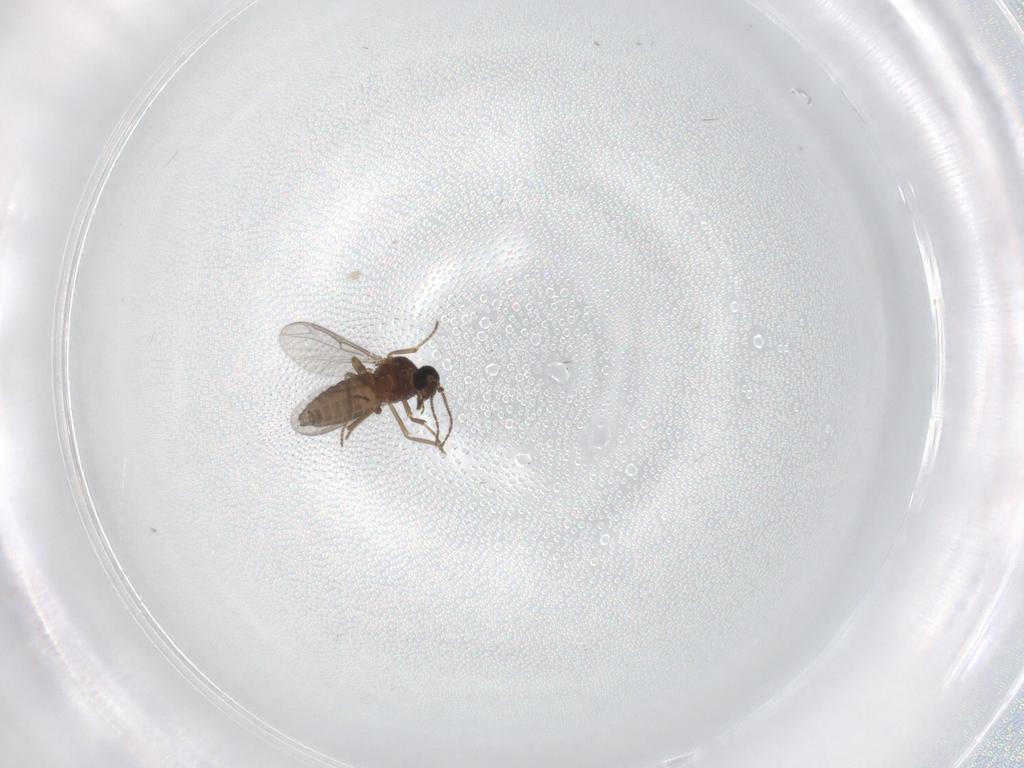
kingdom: Animalia
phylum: Arthropoda
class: Insecta
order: Diptera
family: Ceratopogonidae
